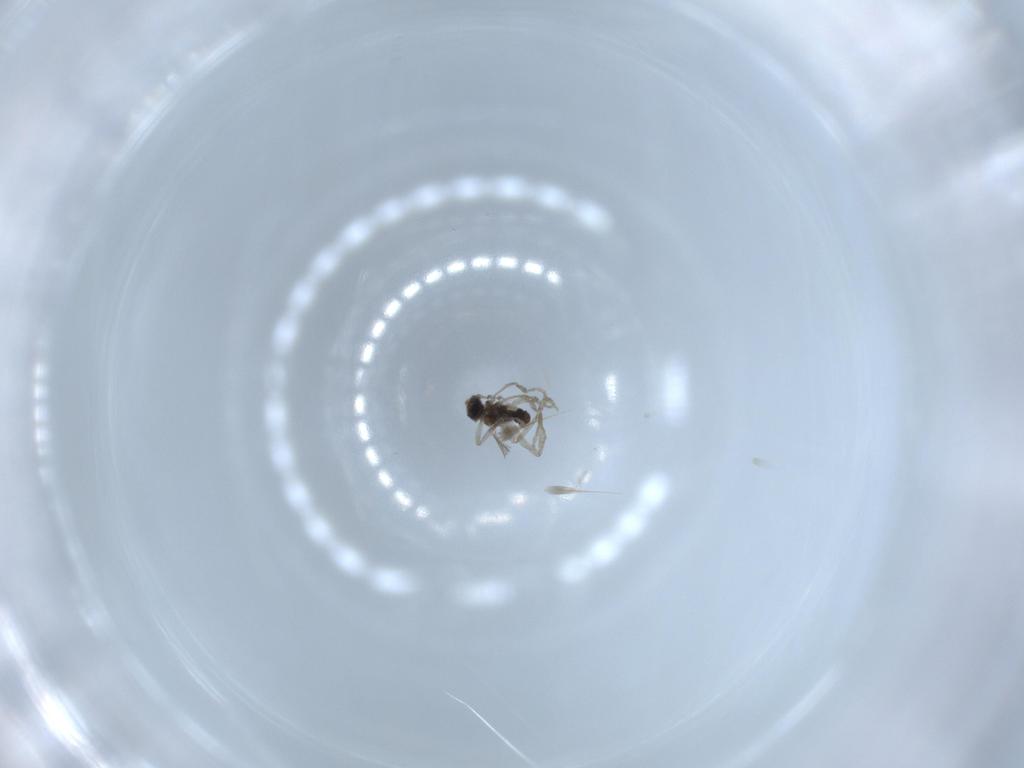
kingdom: Animalia
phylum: Arthropoda
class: Insecta
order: Diptera
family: Cecidomyiidae
